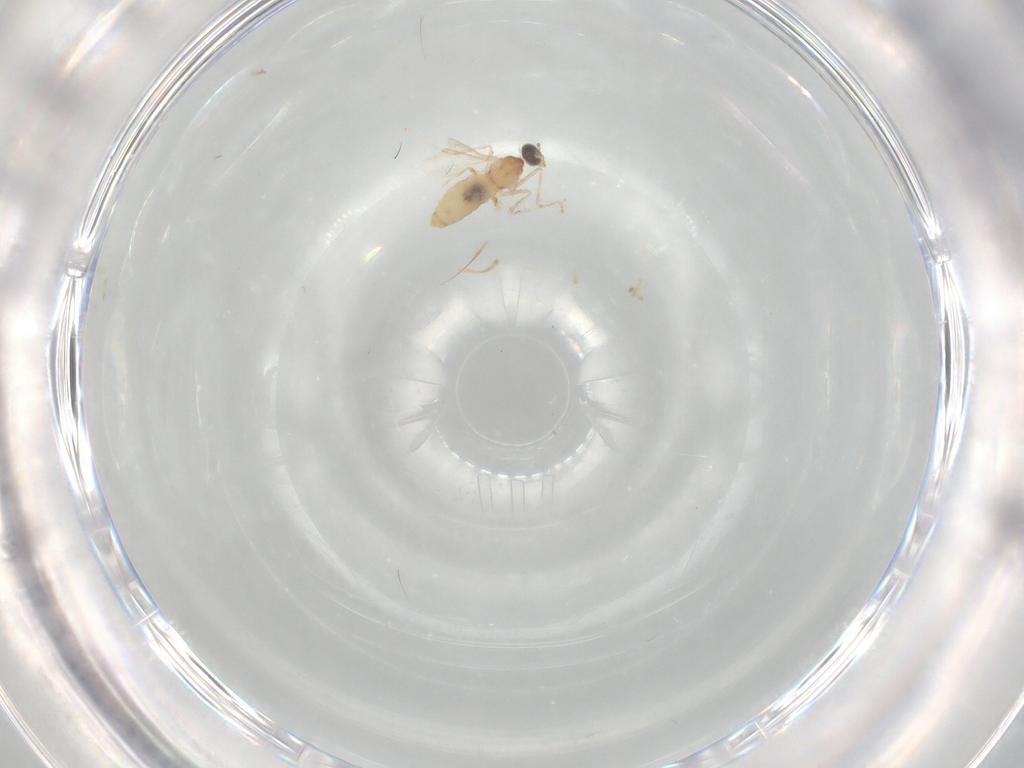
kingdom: Animalia
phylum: Arthropoda
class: Insecta
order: Diptera
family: Cecidomyiidae
